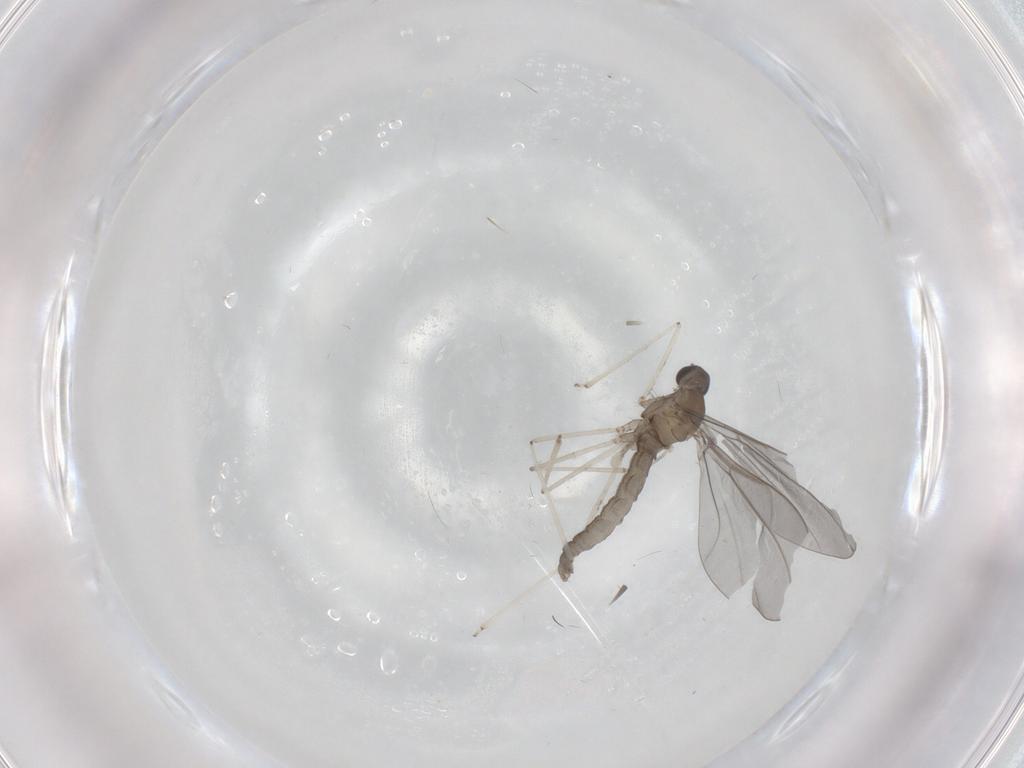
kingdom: Animalia
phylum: Arthropoda
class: Insecta
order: Diptera
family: Cecidomyiidae
